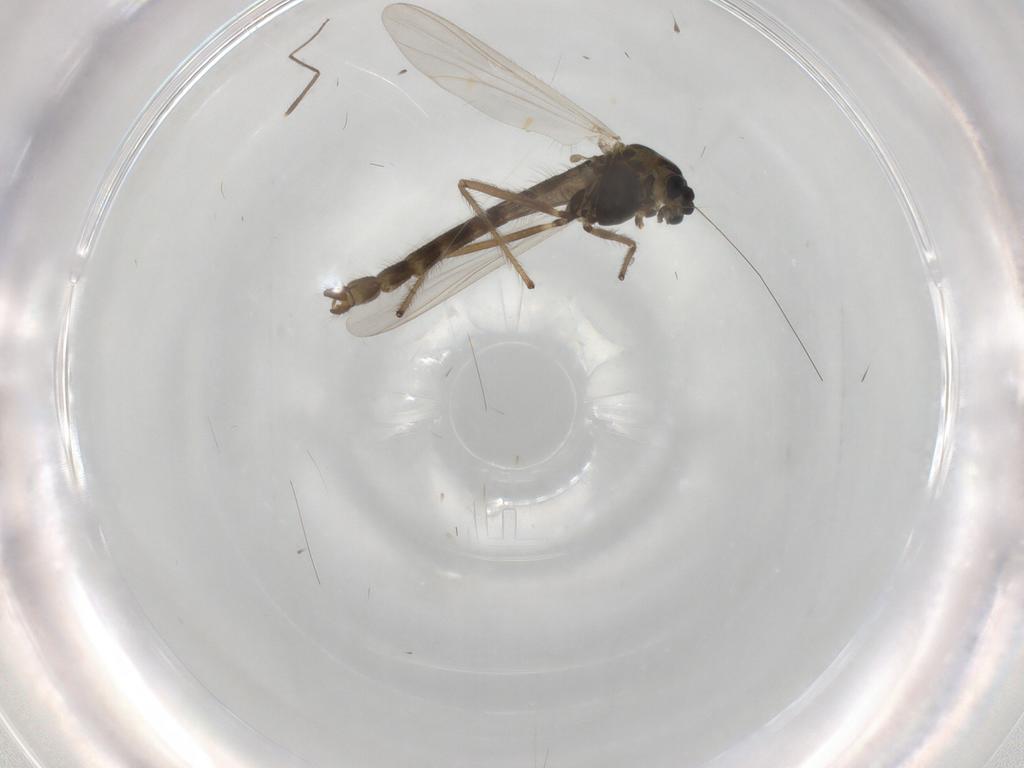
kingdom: Animalia
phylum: Arthropoda
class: Insecta
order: Diptera
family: Chironomidae
